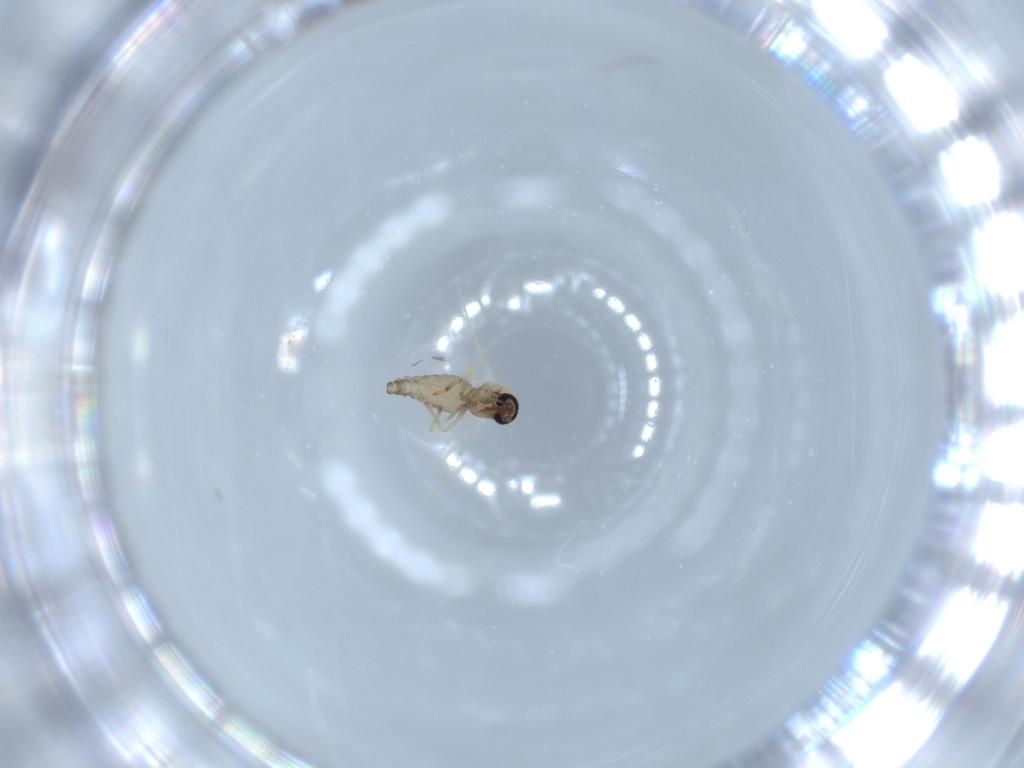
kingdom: Animalia
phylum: Arthropoda
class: Insecta
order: Diptera
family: Ceratopogonidae
